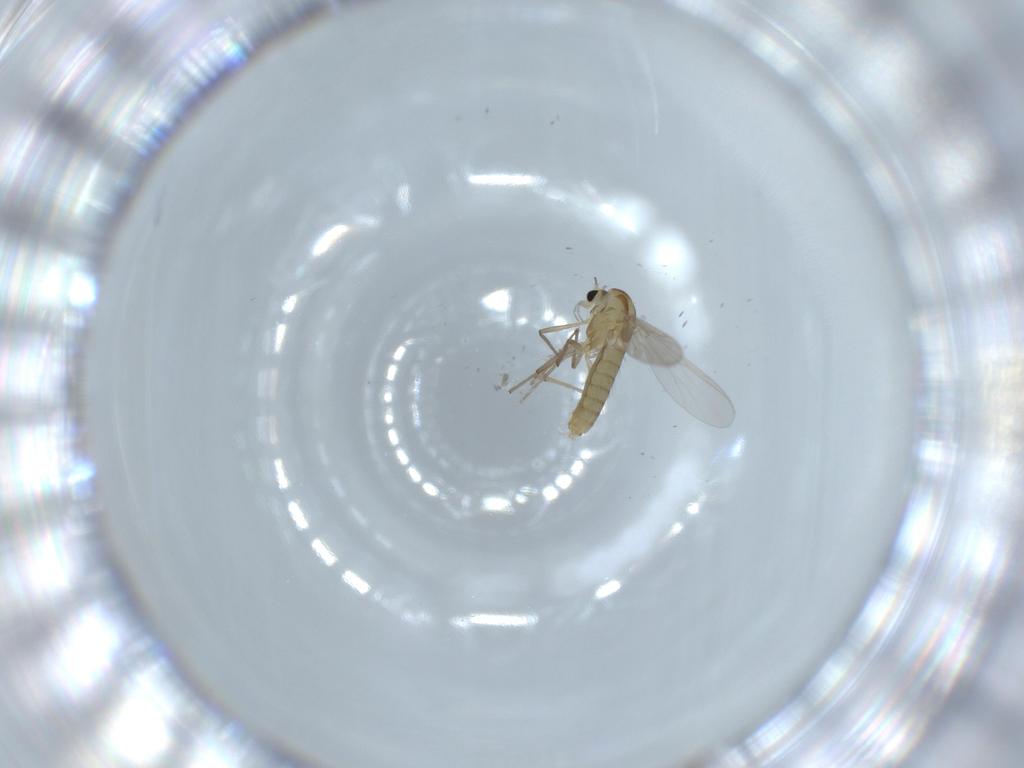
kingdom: Animalia
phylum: Arthropoda
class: Insecta
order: Diptera
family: Chironomidae
